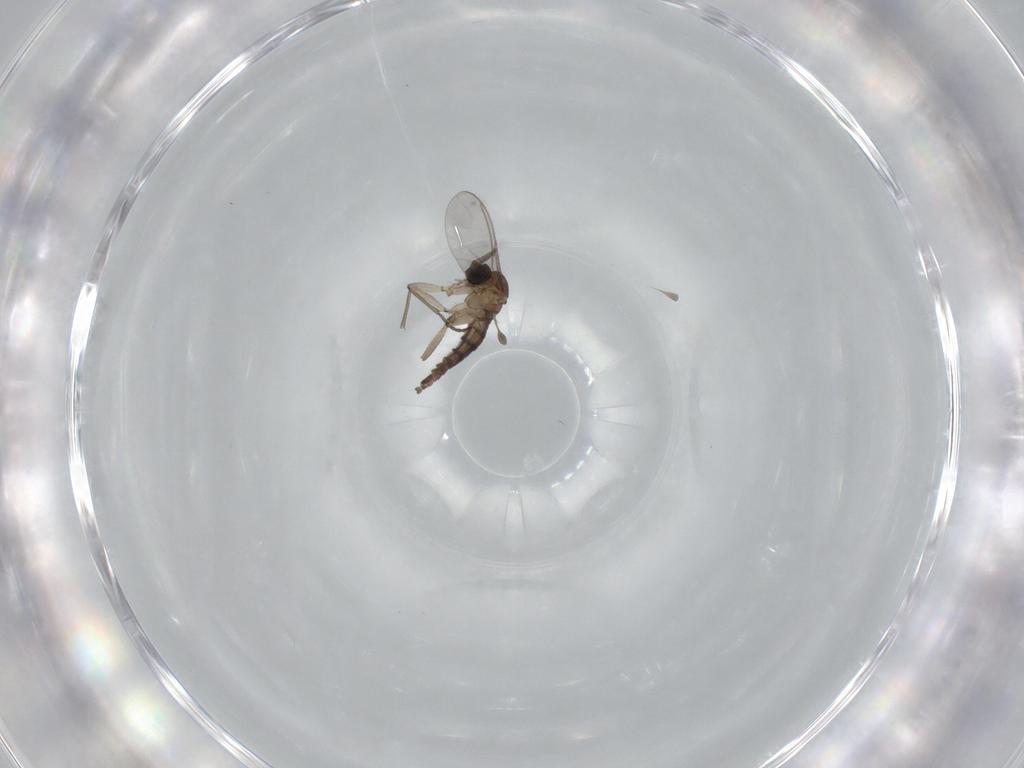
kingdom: Animalia
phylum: Arthropoda
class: Insecta
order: Diptera
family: Sciaridae
